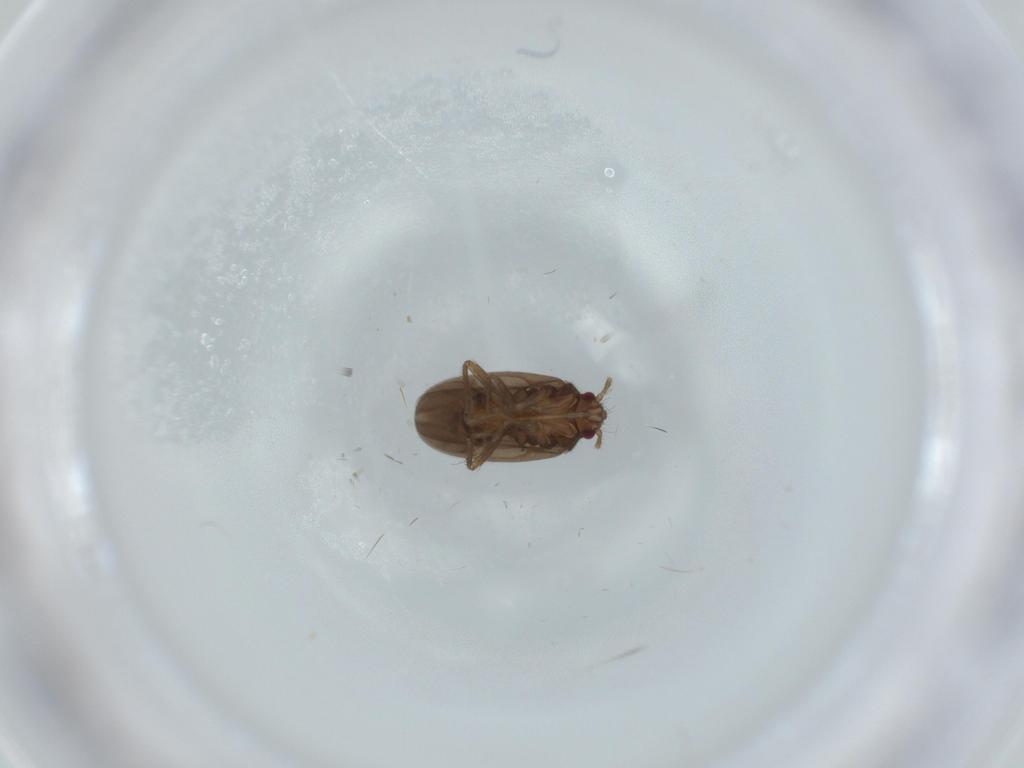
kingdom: Animalia
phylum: Arthropoda
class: Insecta
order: Hemiptera
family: Ceratocombidae
